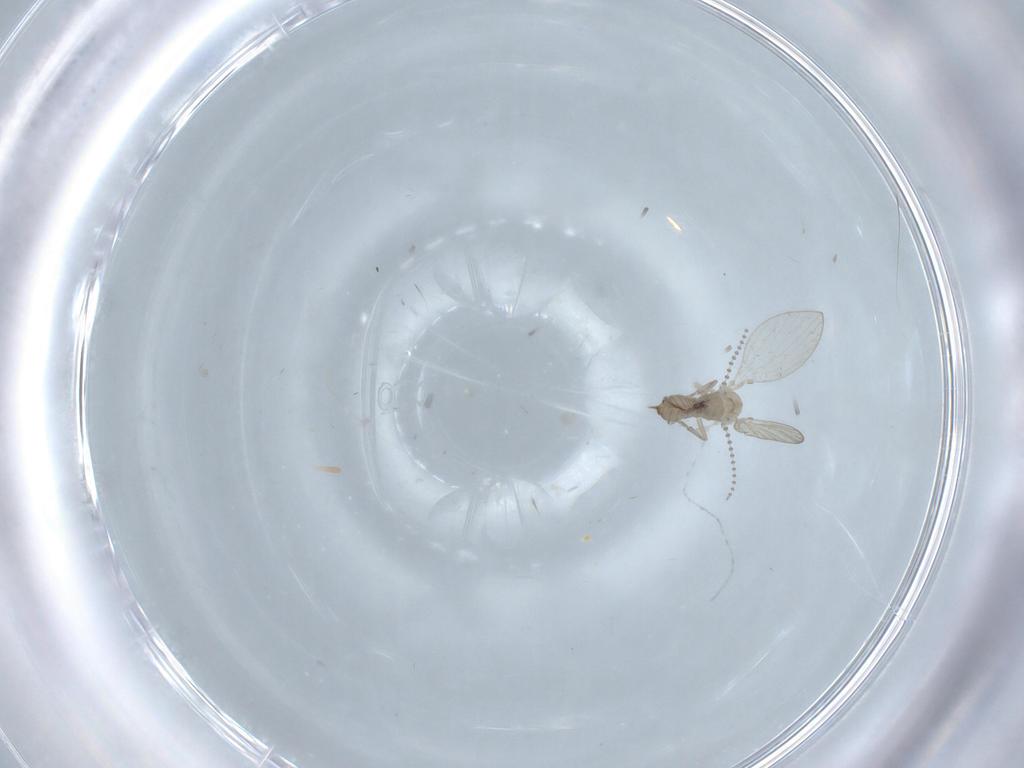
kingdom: Animalia
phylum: Arthropoda
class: Insecta
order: Diptera
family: Psychodidae
